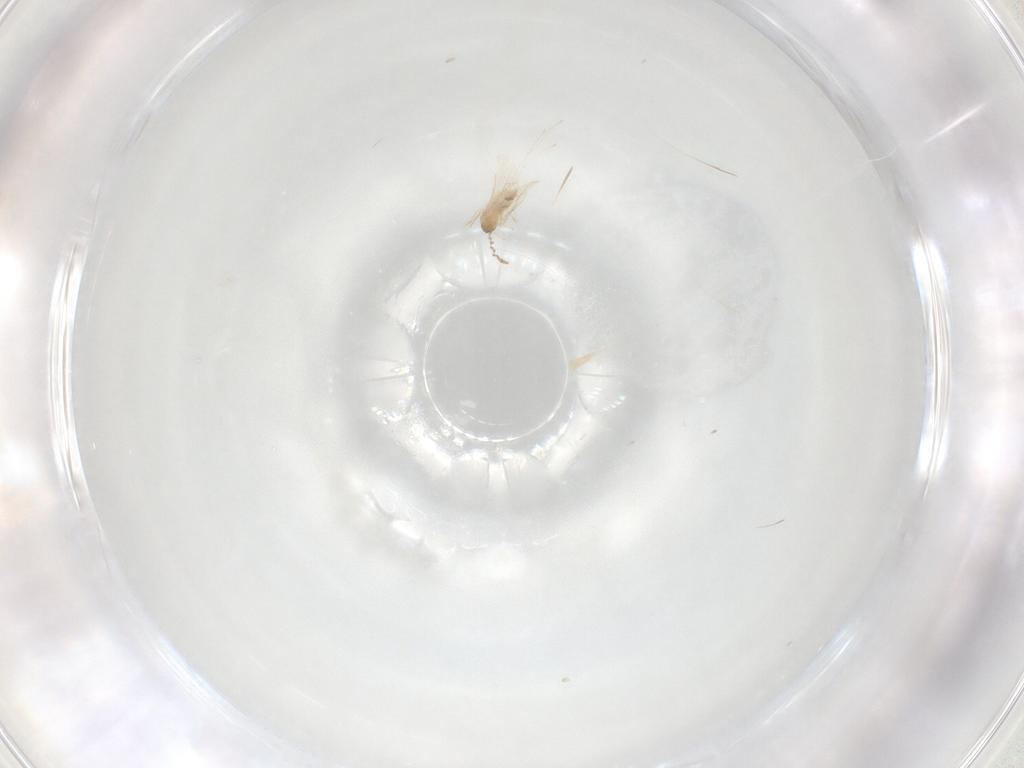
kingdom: Animalia
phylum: Arthropoda
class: Insecta
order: Diptera
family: Cecidomyiidae
